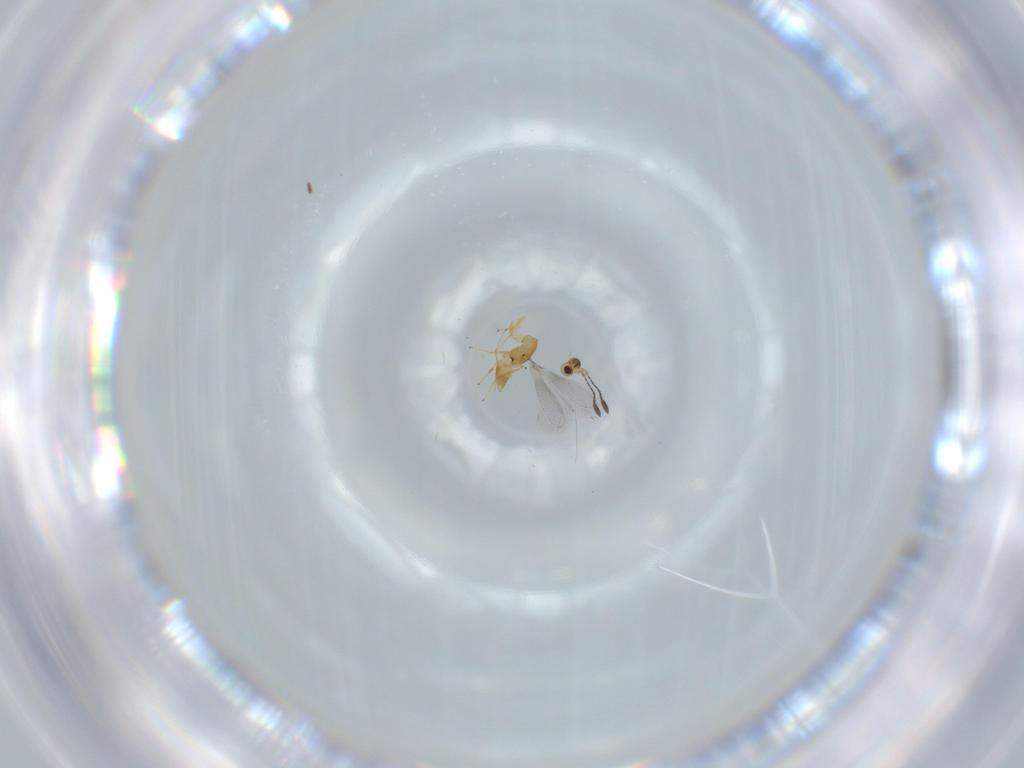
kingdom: Animalia
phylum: Arthropoda
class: Insecta
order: Hymenoptera
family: Mymaridae
